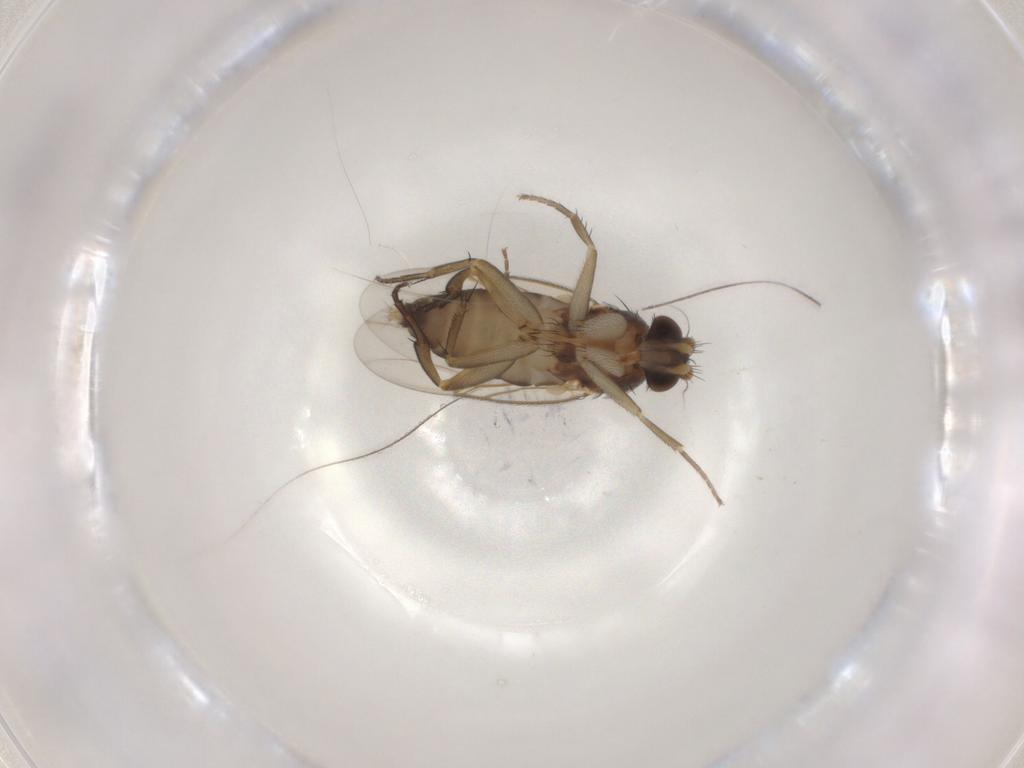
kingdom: Animalia
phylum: Arthropoda
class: Insecta
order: Diptera
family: Phoridae
